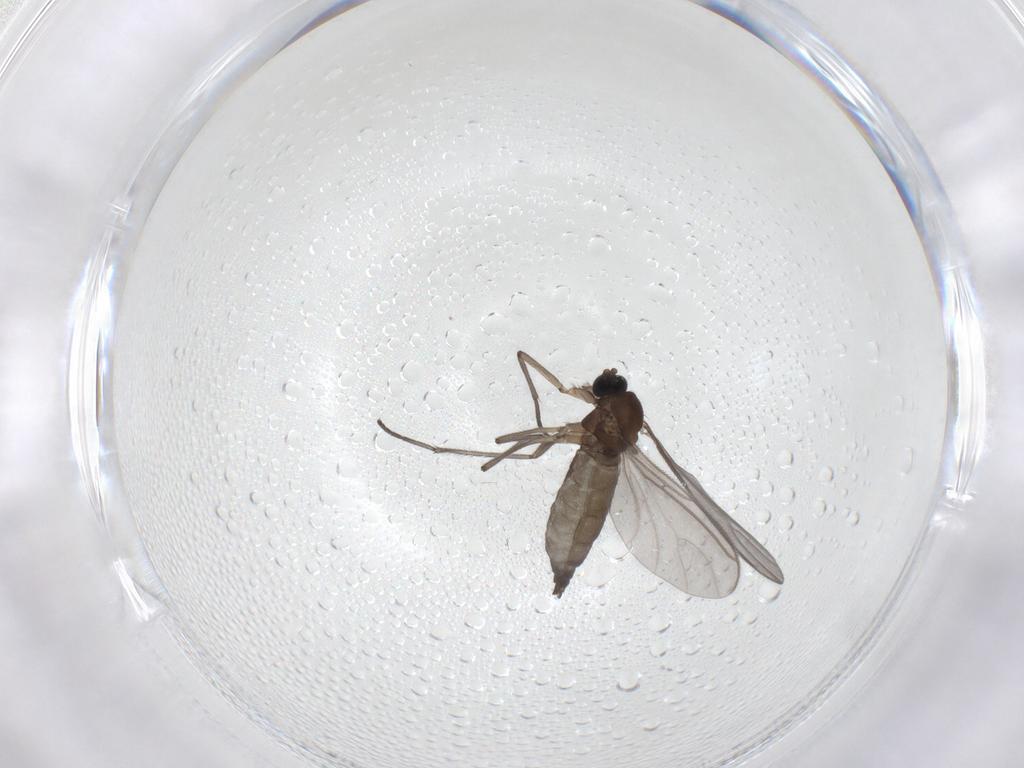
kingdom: Animalia
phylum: Arthropoda
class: Insecta
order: Diptera
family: Sciaridae
